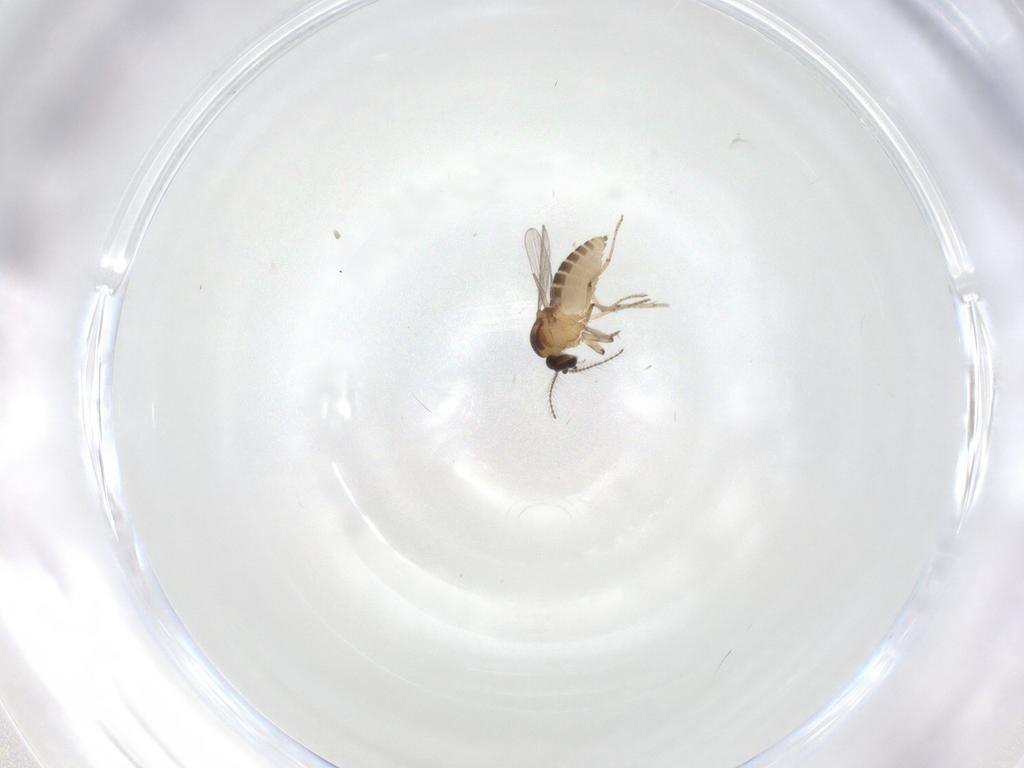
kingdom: Animalia
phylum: Arthropoda
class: Insecta
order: Diptera
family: Ceratopogonidae
